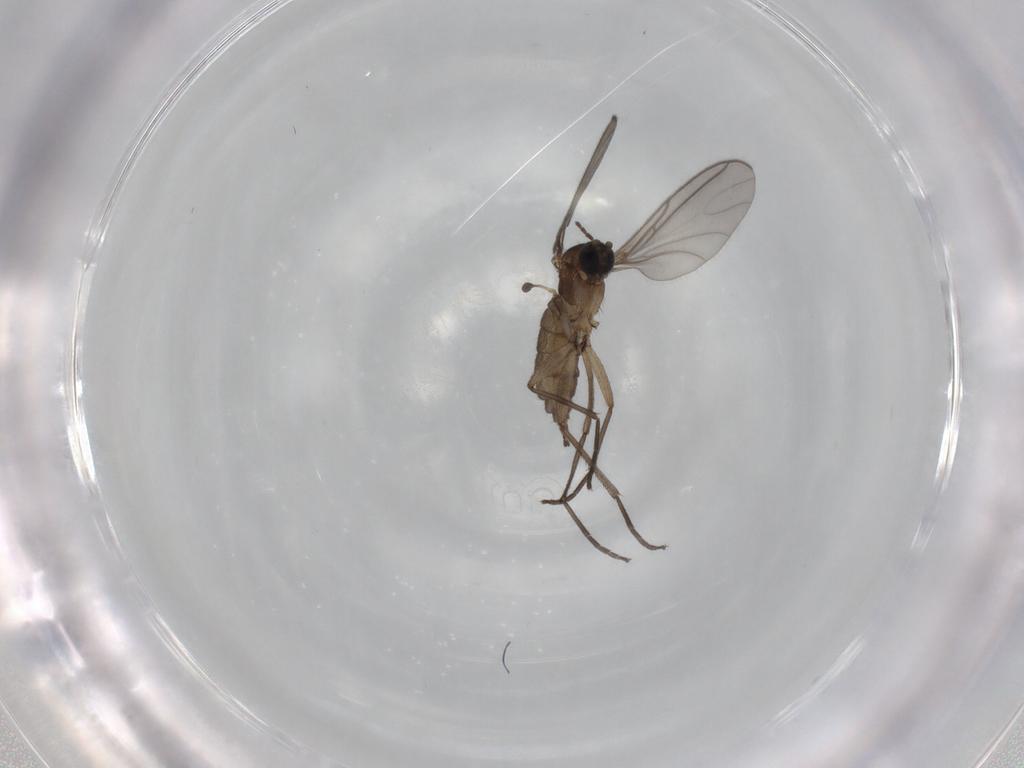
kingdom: Animalia
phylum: Arthropoda
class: Insecta
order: Diptera
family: Sciaridae
